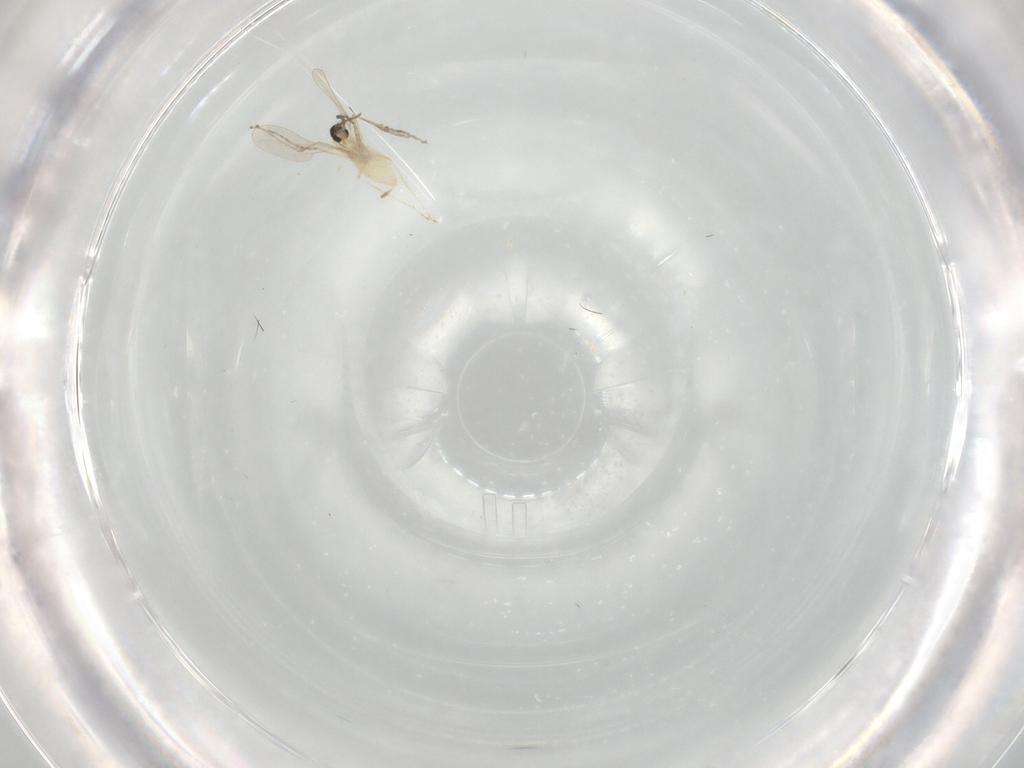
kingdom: Animalia
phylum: Arthropoda
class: Insecta
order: Diptera
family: Cecidomyiidae
